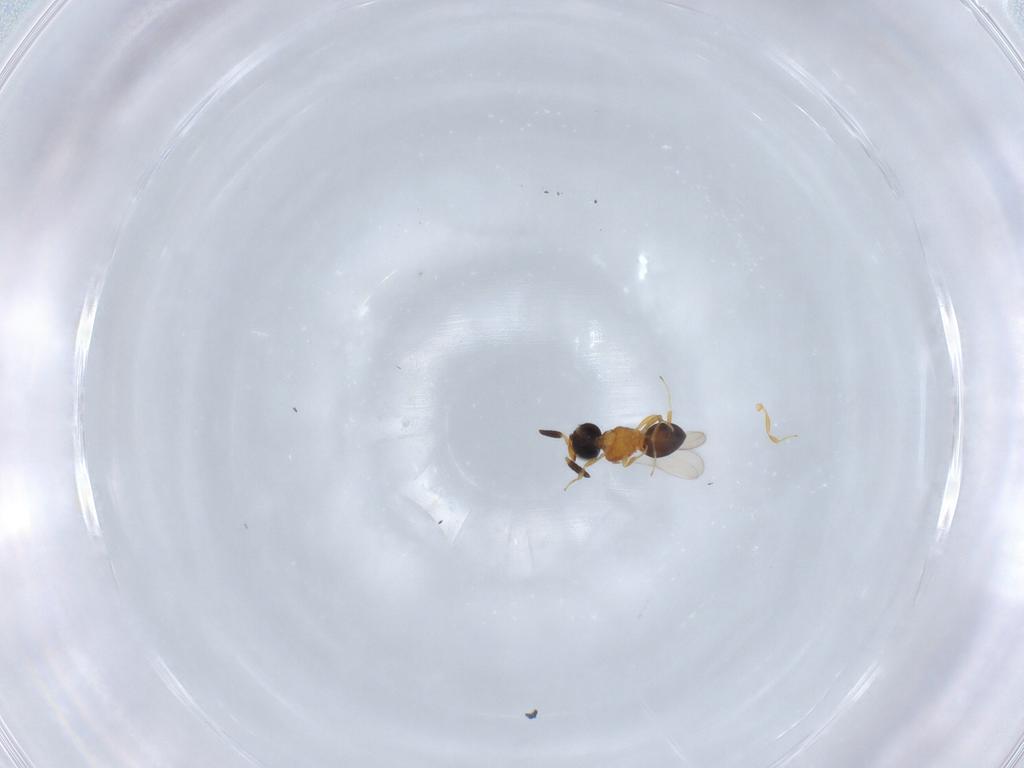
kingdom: Animalia
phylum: Arthropoda
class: Insecta
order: Hymenoptera
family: Scelionidae
